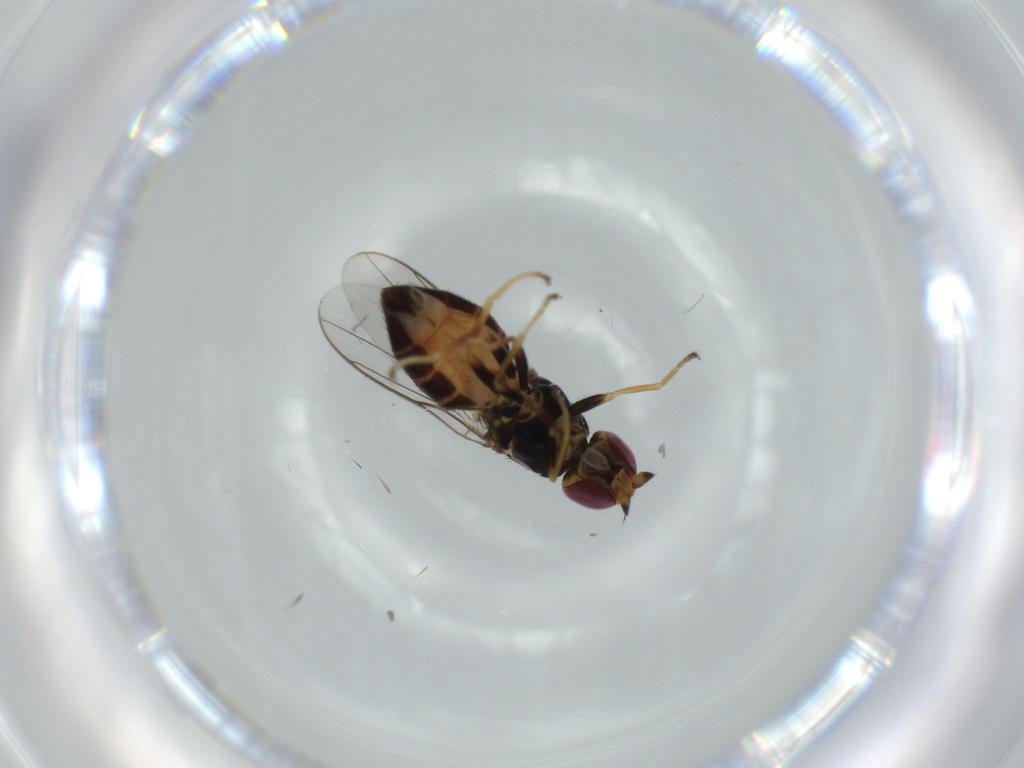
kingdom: Animalia
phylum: Arthropoda
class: Insecta
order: Diptera
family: Chloropidae
